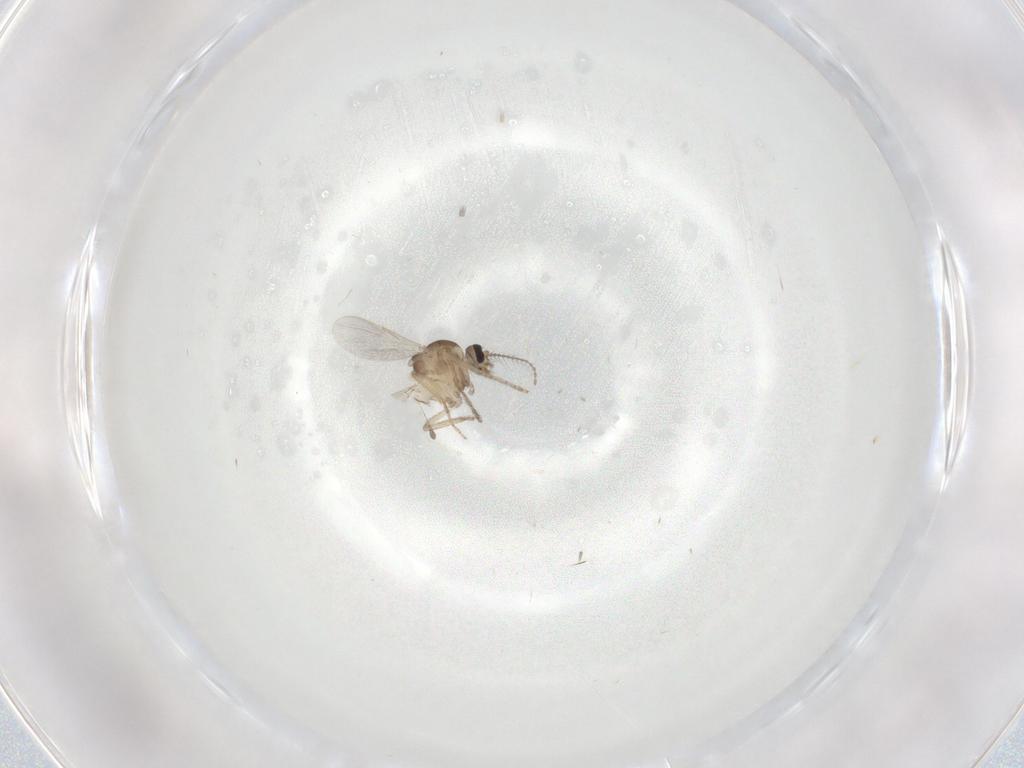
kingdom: Animalia
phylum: Arthropoda
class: Insecta
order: Diptera
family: Ceratopogonidae
